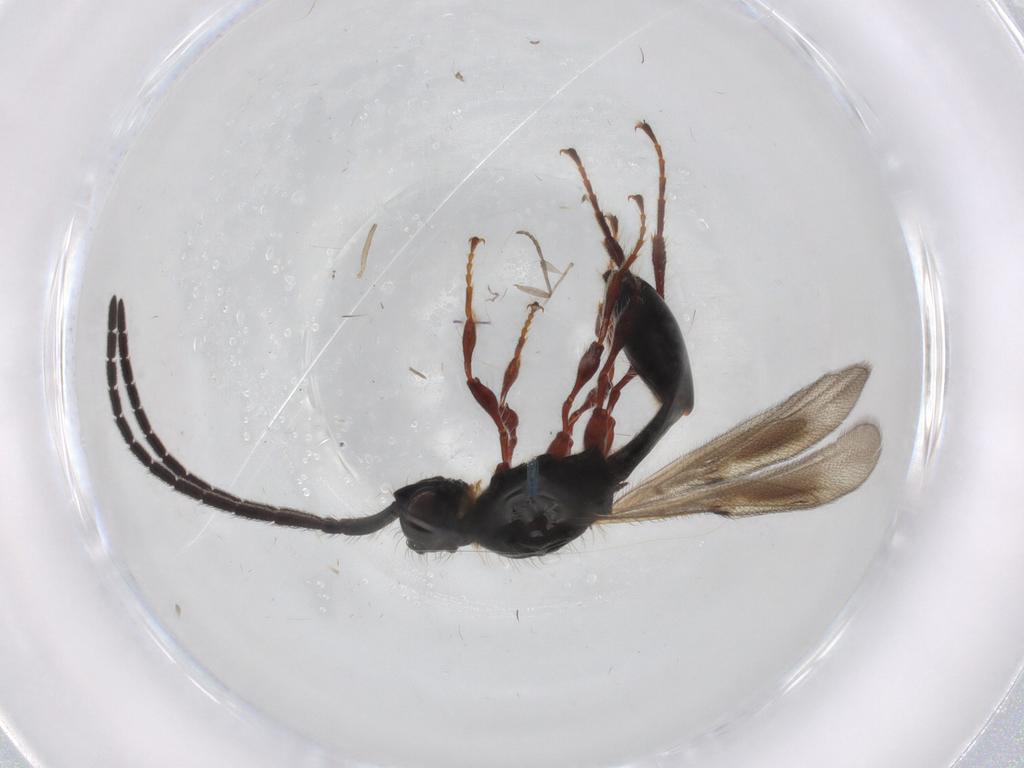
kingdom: Animalia
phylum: Arthropoda
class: Insecta
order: Hymenoptera
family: Diapriidae
